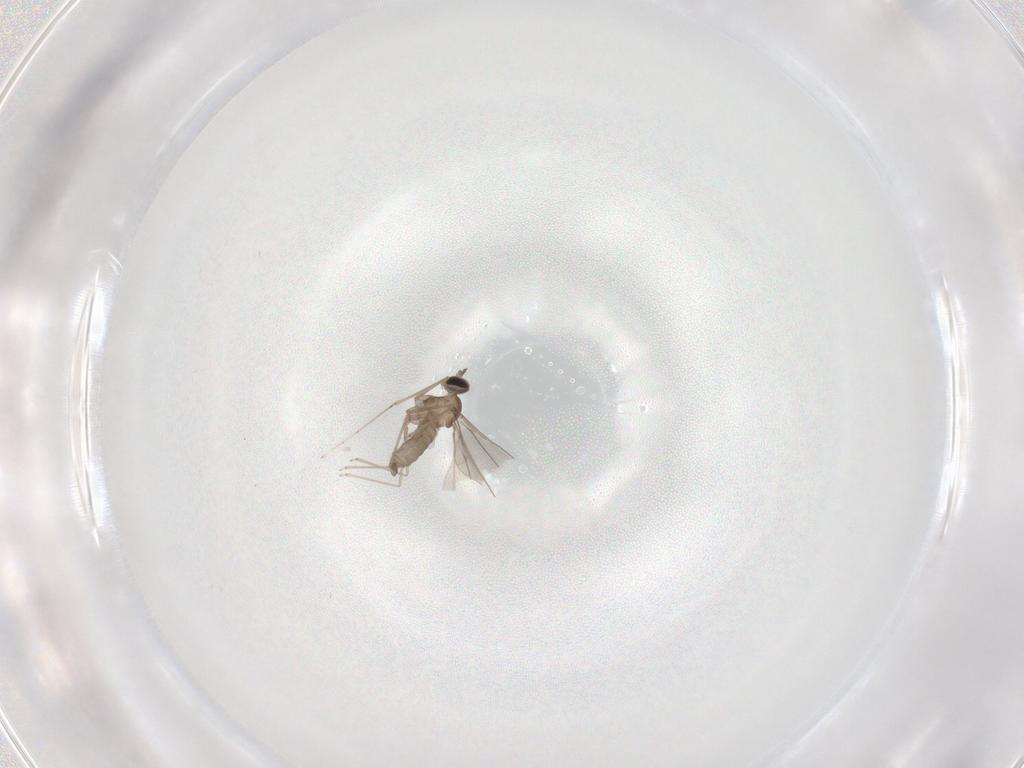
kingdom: Animalia
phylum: Arthropoda
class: Insecta
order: Diptera
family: Cecidomyiidae
